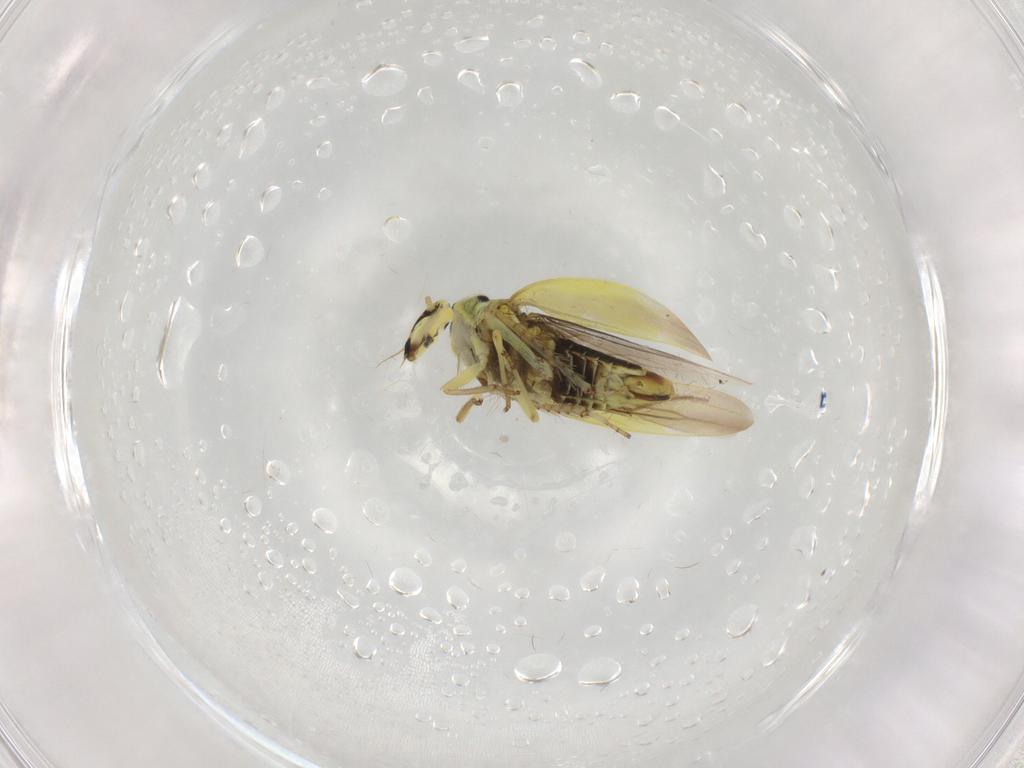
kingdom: Animalia
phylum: Arthropoda
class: Insecta
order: Hemiptera
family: Cicadellidae
